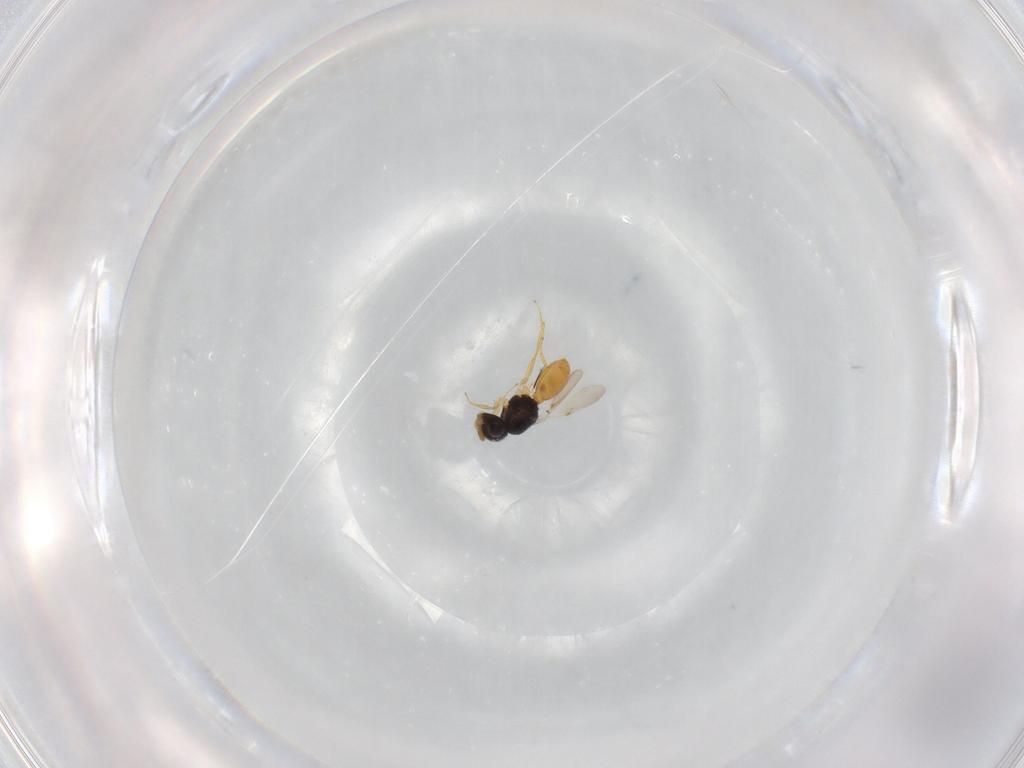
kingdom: Animalia
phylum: Arthropoda
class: Insecta
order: Hymenoptera
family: Scelionidae
